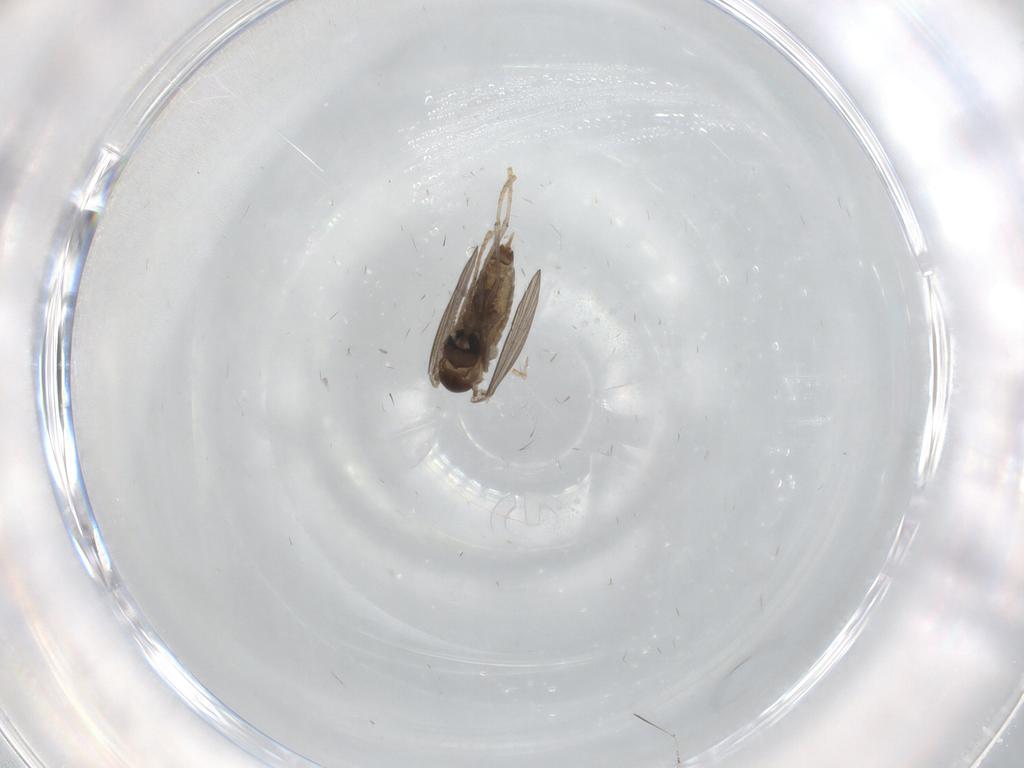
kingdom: Animalia
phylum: Arthropoda
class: Insecta
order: Diptera
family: Psychodidae
